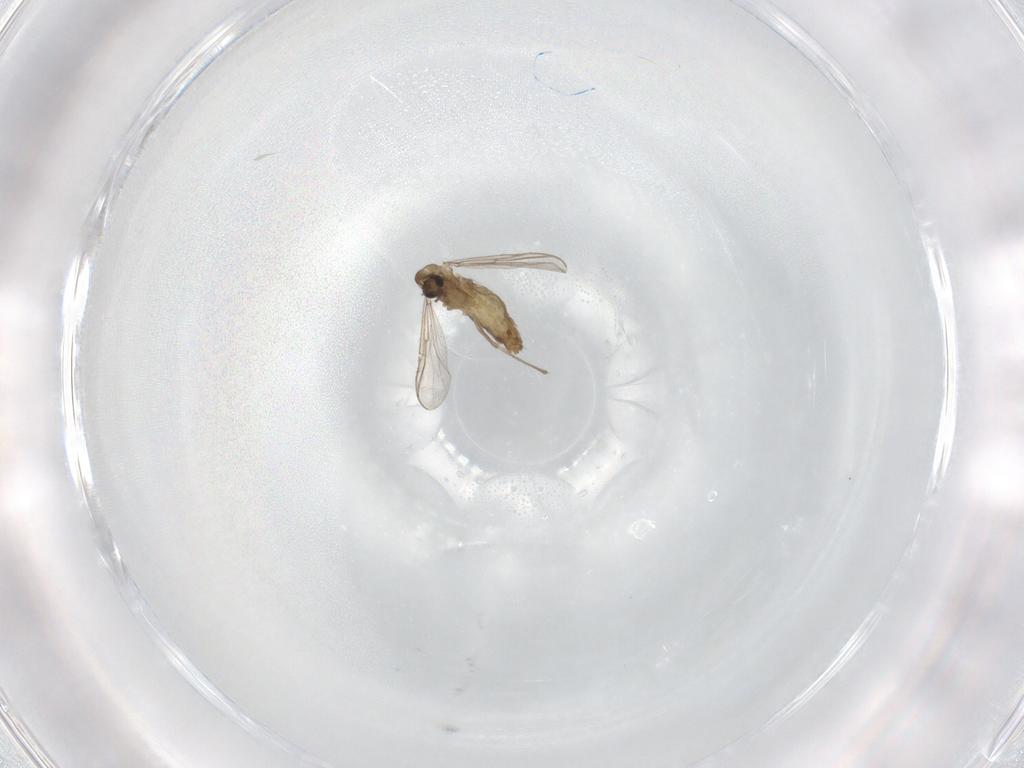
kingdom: Animalia
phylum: Arthropoda
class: Insecta
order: Diptera
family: Chironomidae
